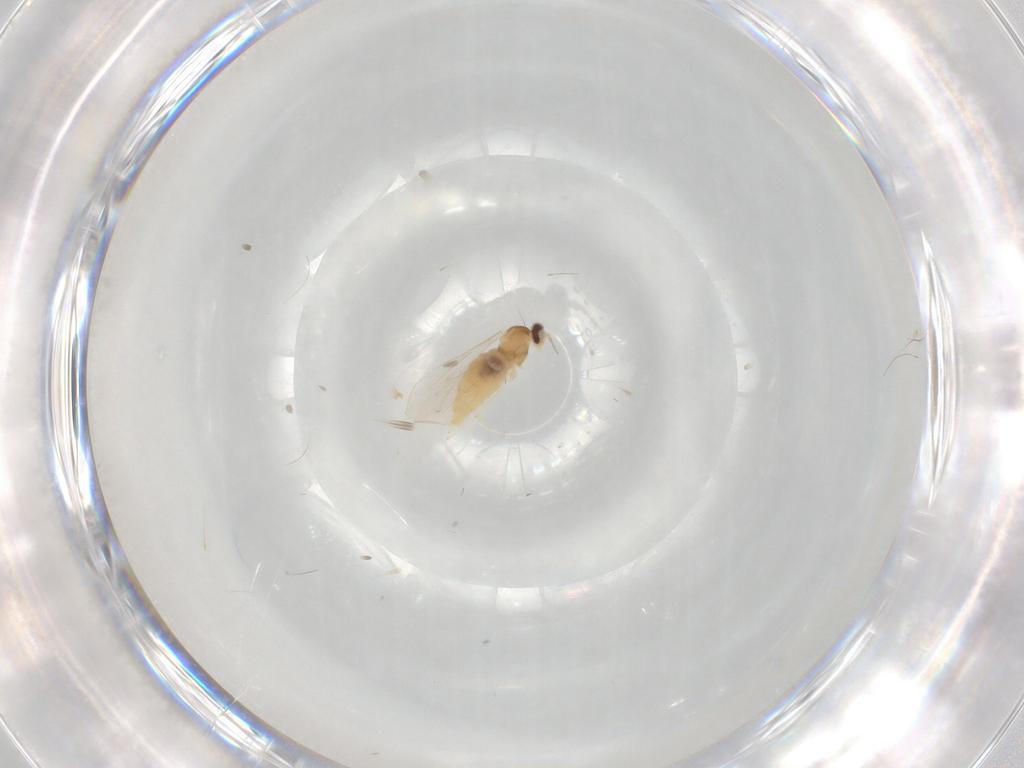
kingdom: Animalia
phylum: Arthropoda
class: Insecta
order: Diptera
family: Cecidomyiidae
